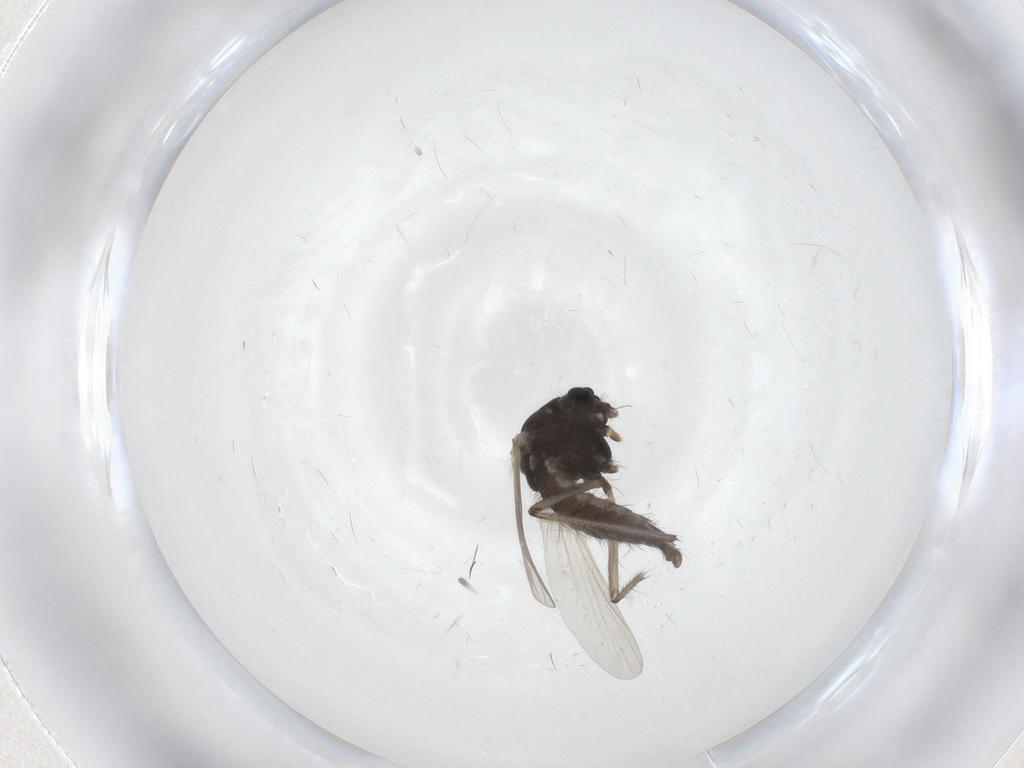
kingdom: Animalia
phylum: Arthropoda
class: Insecta
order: Diptera
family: Chironomidae
